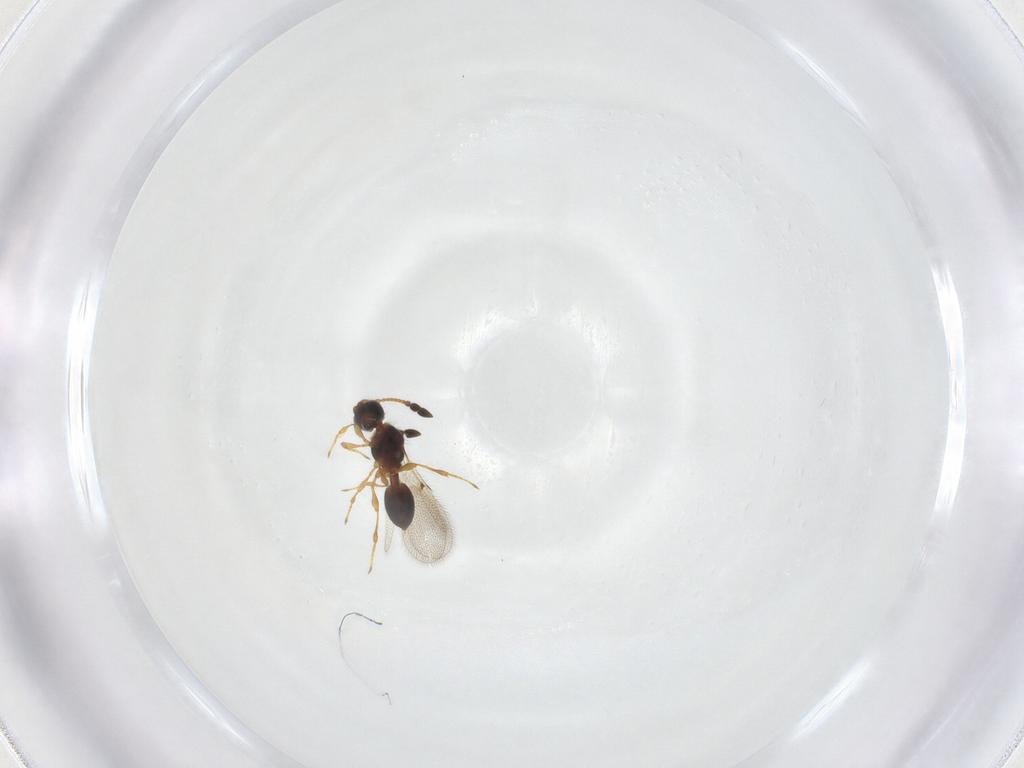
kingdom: Animalia
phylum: Arthropoda
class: Insecta
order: Hymenoptera
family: Diapriidae
